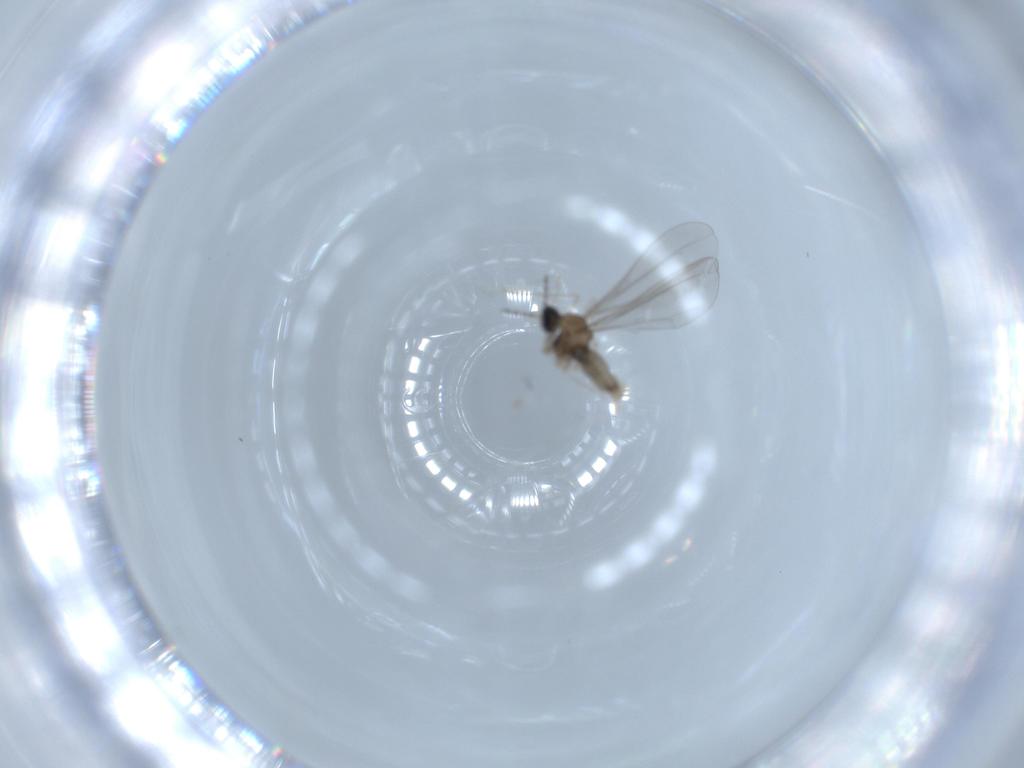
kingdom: Animalia
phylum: Arthropoda
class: Insecta
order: Diptera
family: Cecidomyiidae
